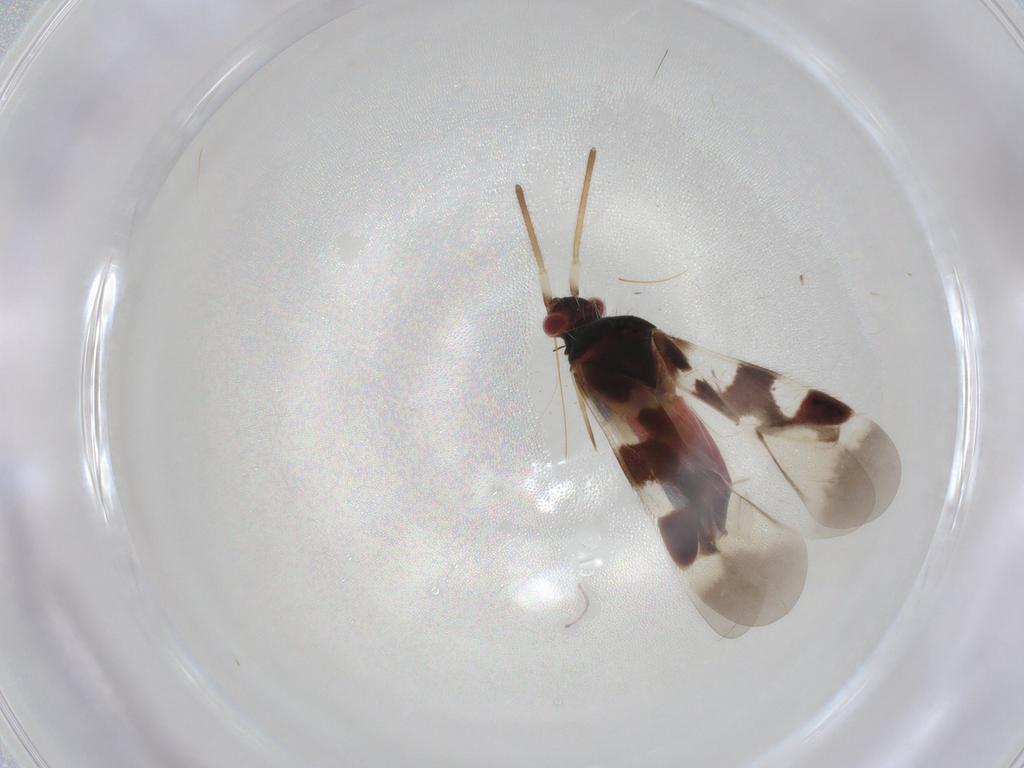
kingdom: Animalia
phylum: Arthropoda
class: Insecta
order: Hemiptera
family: Miridae
